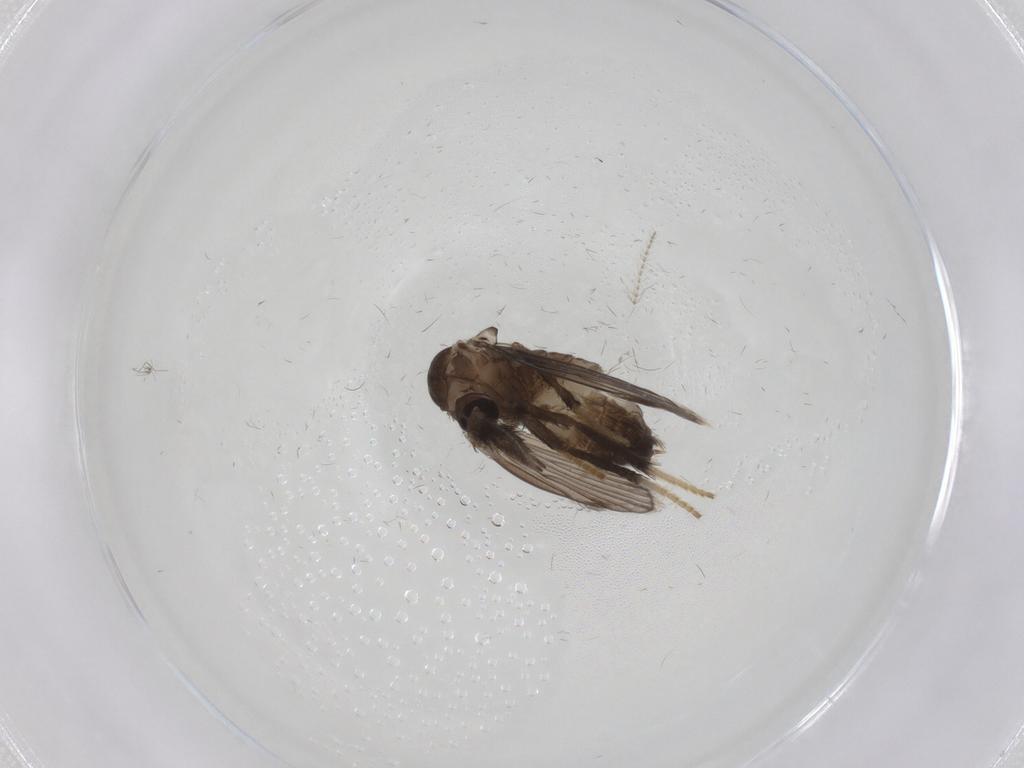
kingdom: Animalia
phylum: Arthropoda
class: Insecta
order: Diptera
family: Psychodidae
